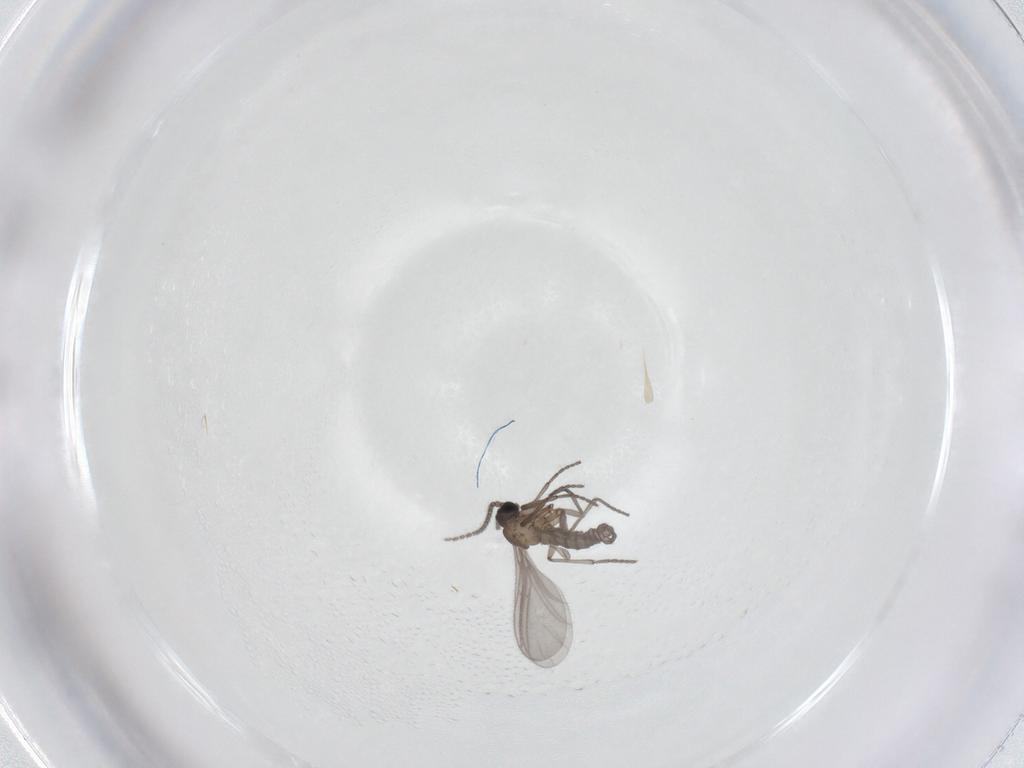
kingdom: Animalia
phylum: Arthropoda
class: Insecta
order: Diptera
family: Sciaridae
